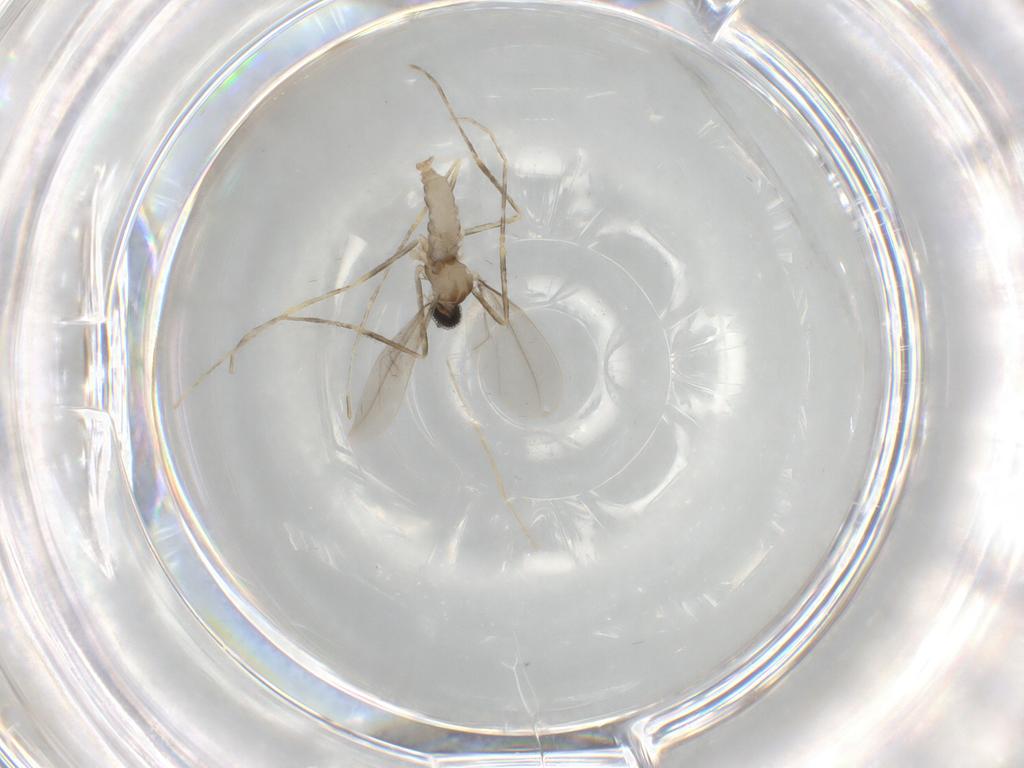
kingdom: Animalia
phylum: Arthropoda
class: Insecta
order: Diptera
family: Cecidomyiidae
